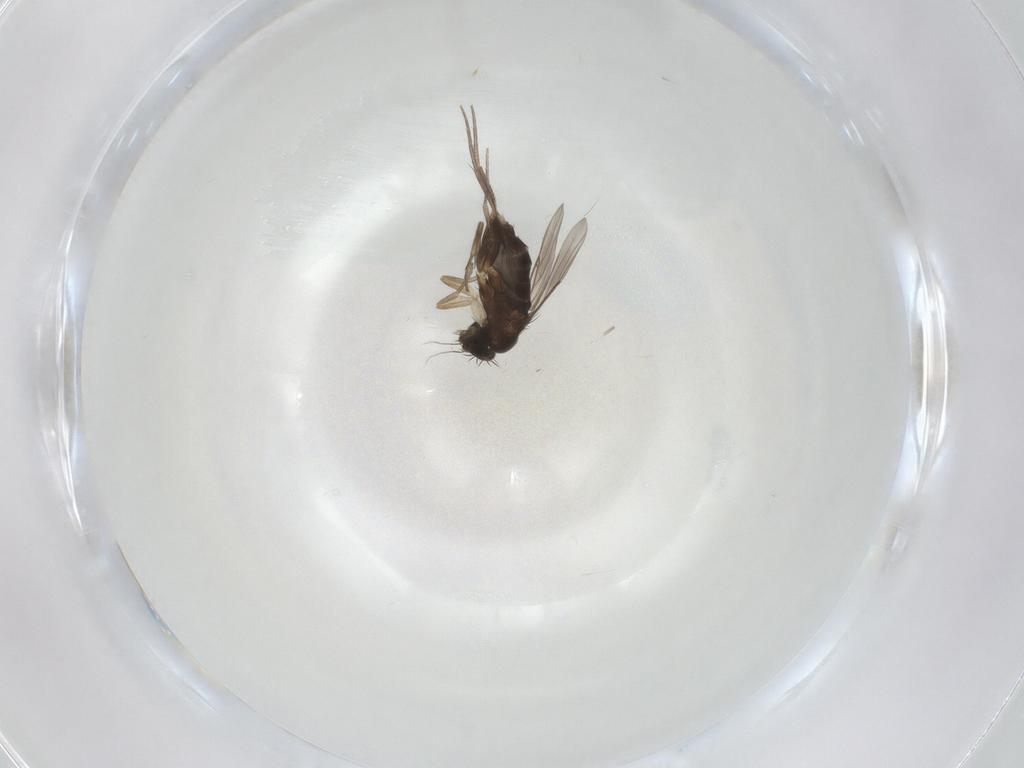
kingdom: Animalia
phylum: Arthropoda
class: Insecta
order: Diptera
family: Phoridae
